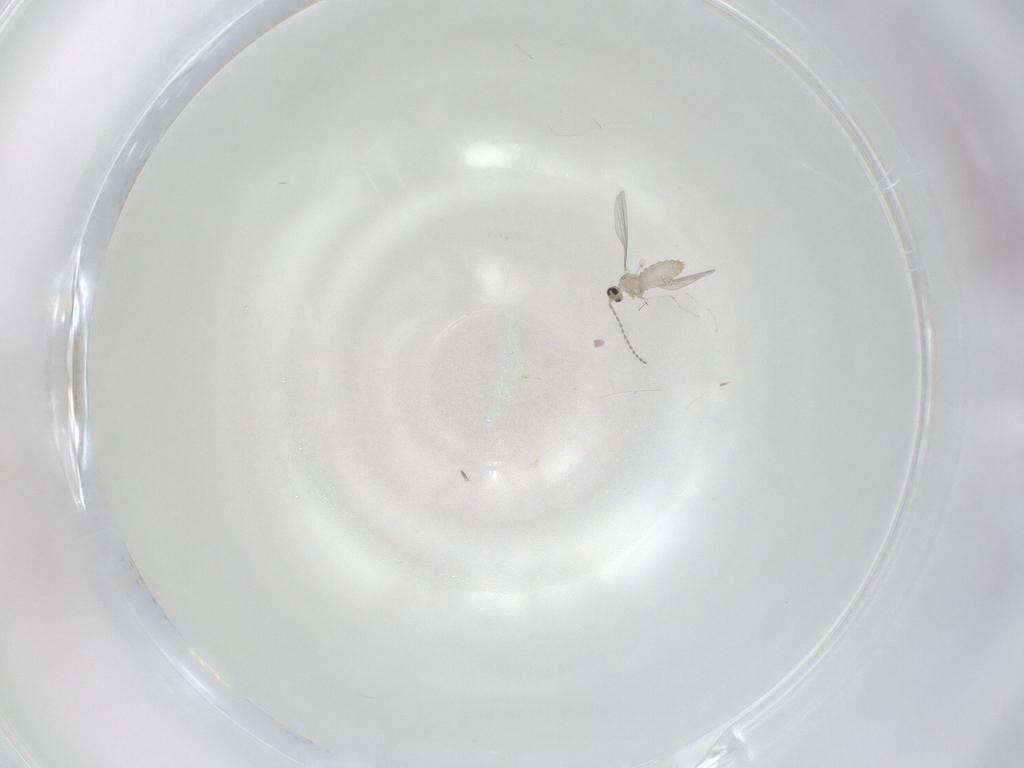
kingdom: Animalia
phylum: Arthropoda
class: Insecta
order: Diptera
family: Cecidomyiidae
